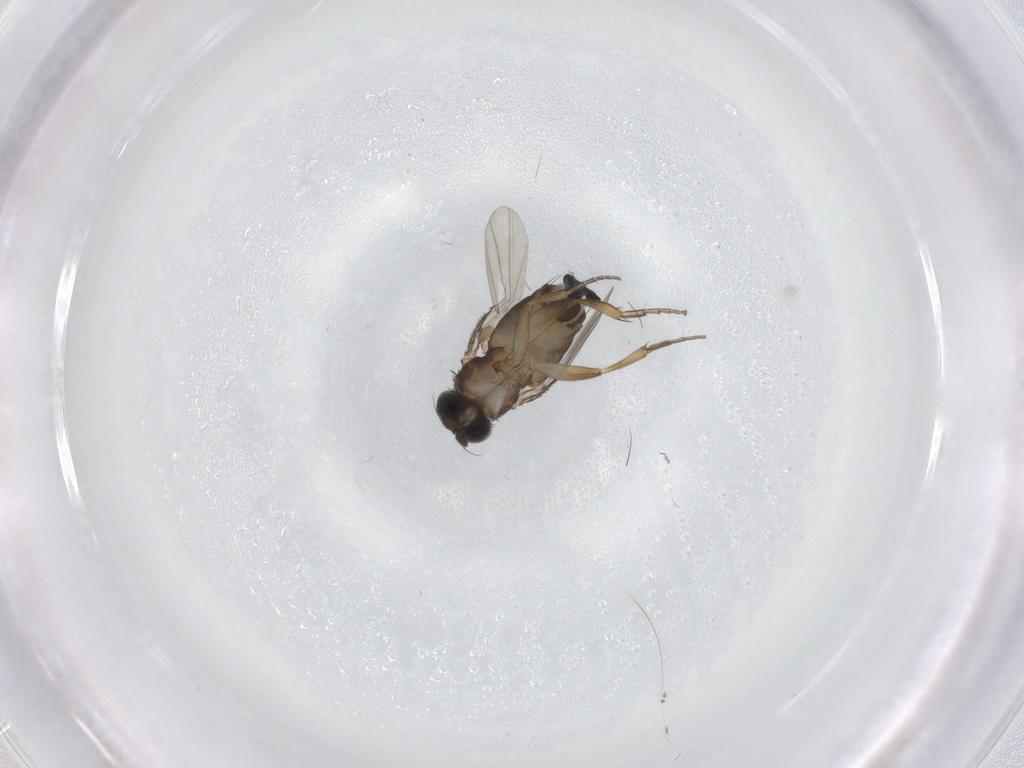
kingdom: Animalia
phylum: Arthropoda
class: Insecta
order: Diptera
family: Phoridae
